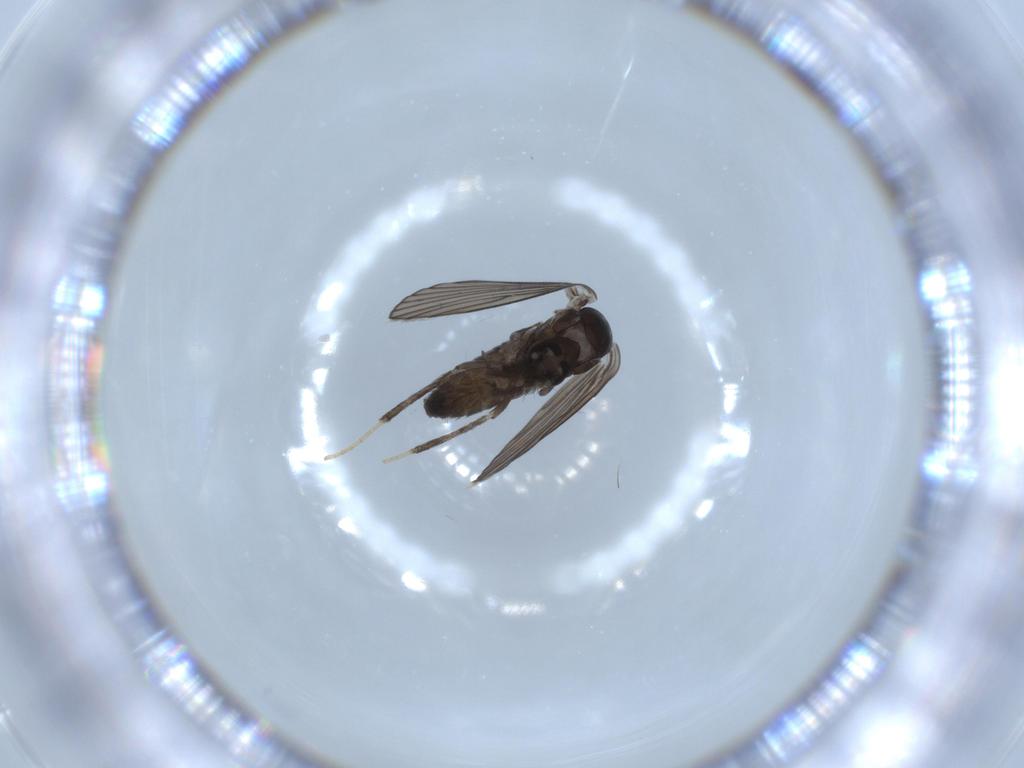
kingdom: Animalia
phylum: Arthropoda
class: Insecta
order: Diptera
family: Psychodidae
